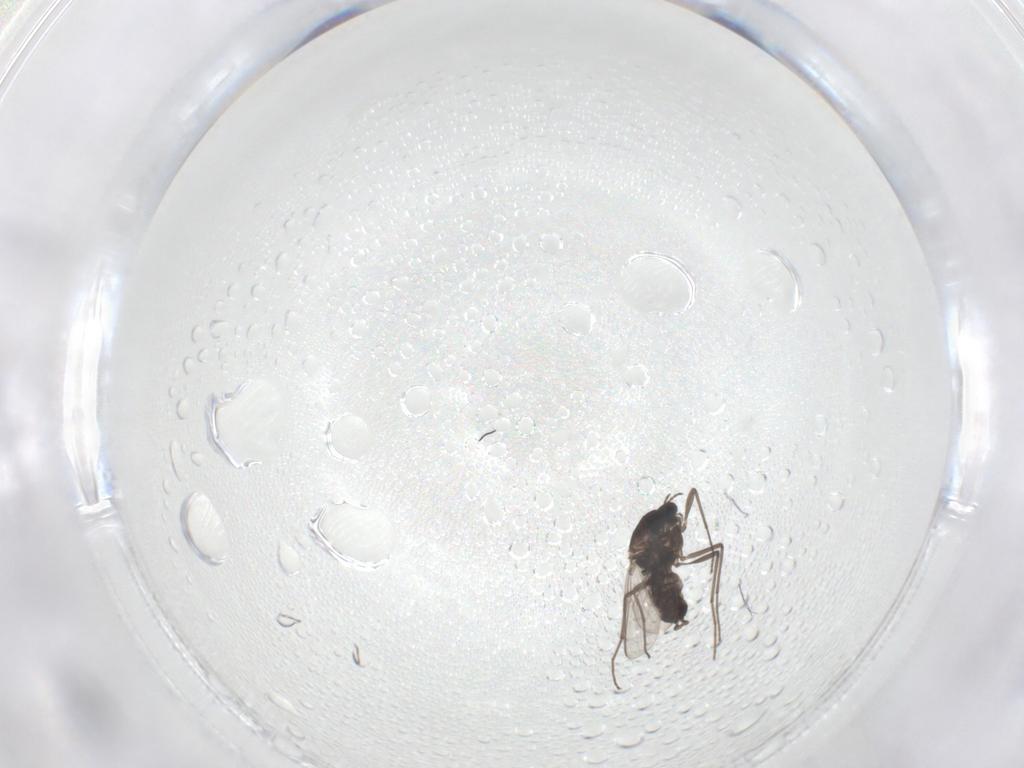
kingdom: Animalia
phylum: Arthropoda
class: Insecta
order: Diptera
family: Chironomidae
